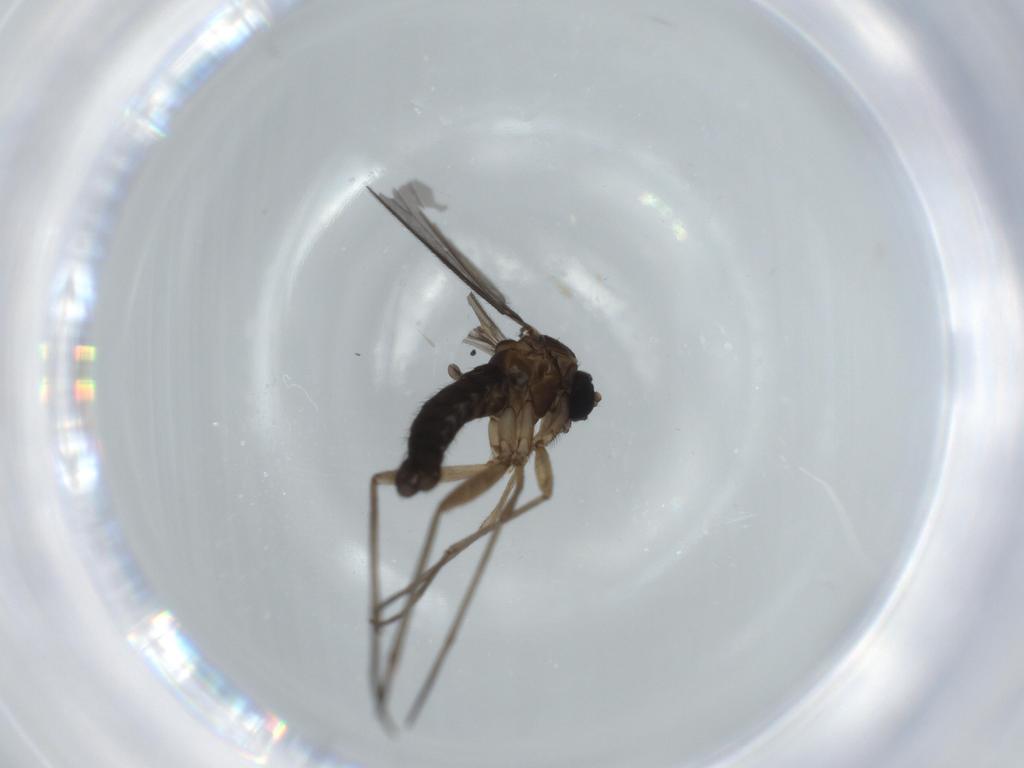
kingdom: Animalia
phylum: Arthropoda
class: Insecta
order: Diptera
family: Sciaridae
